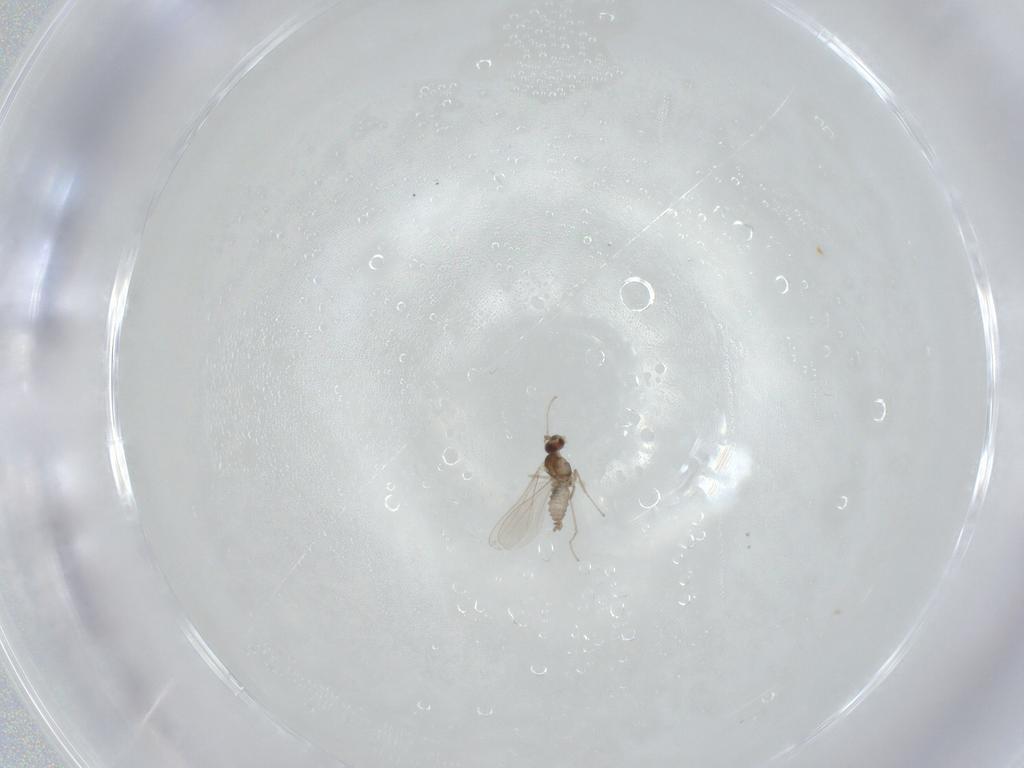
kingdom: Animalia
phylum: Arthropoda
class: Insecta
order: Diptera
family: Cecidomyiidae
